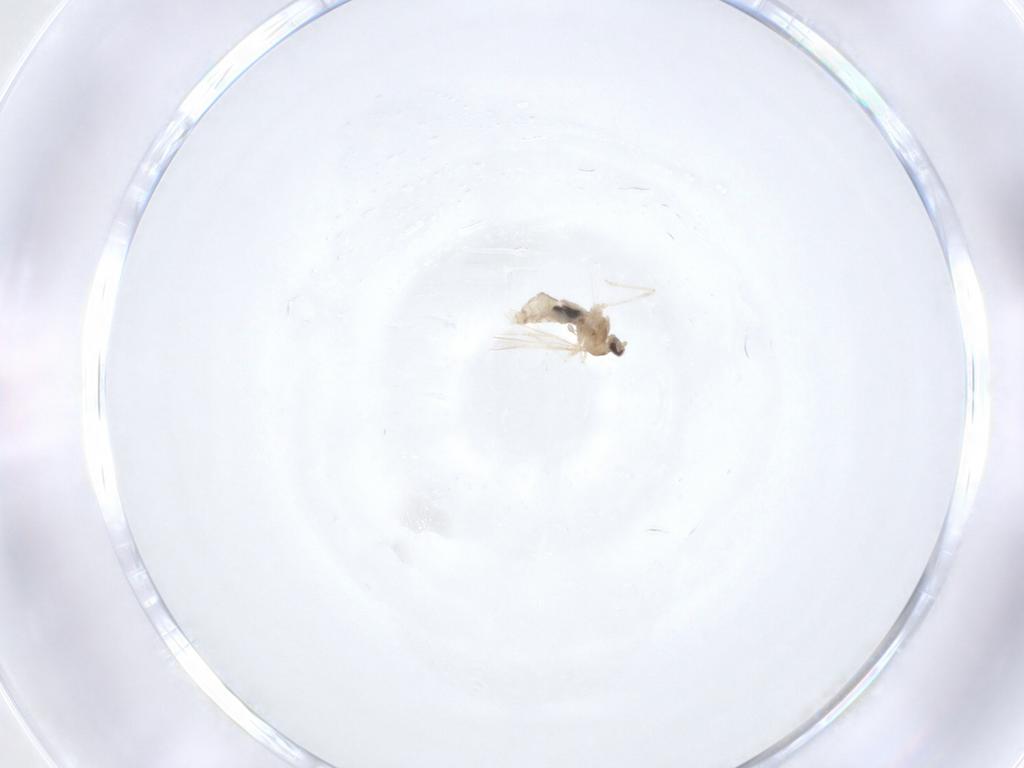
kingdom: Animalia
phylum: Arthropoda
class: Insecta
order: Diptera
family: Cecidomyiidae
